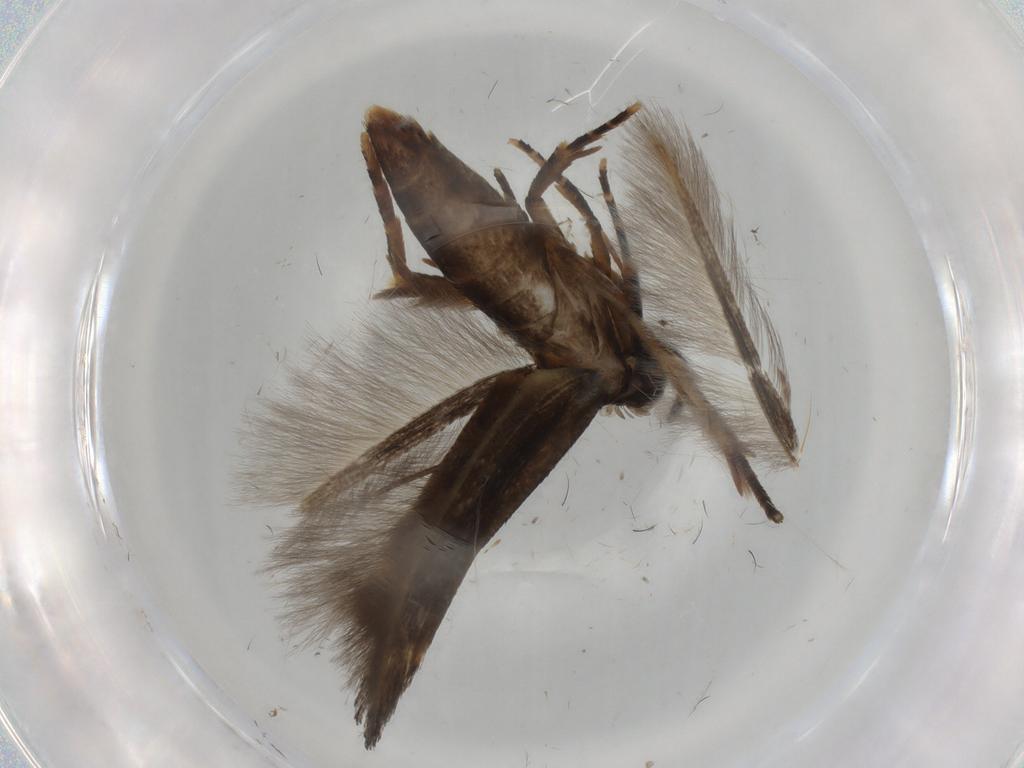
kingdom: Animalia
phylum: Arthropoda
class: Insecta
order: Lepidoptera
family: Cosmopterigidae
